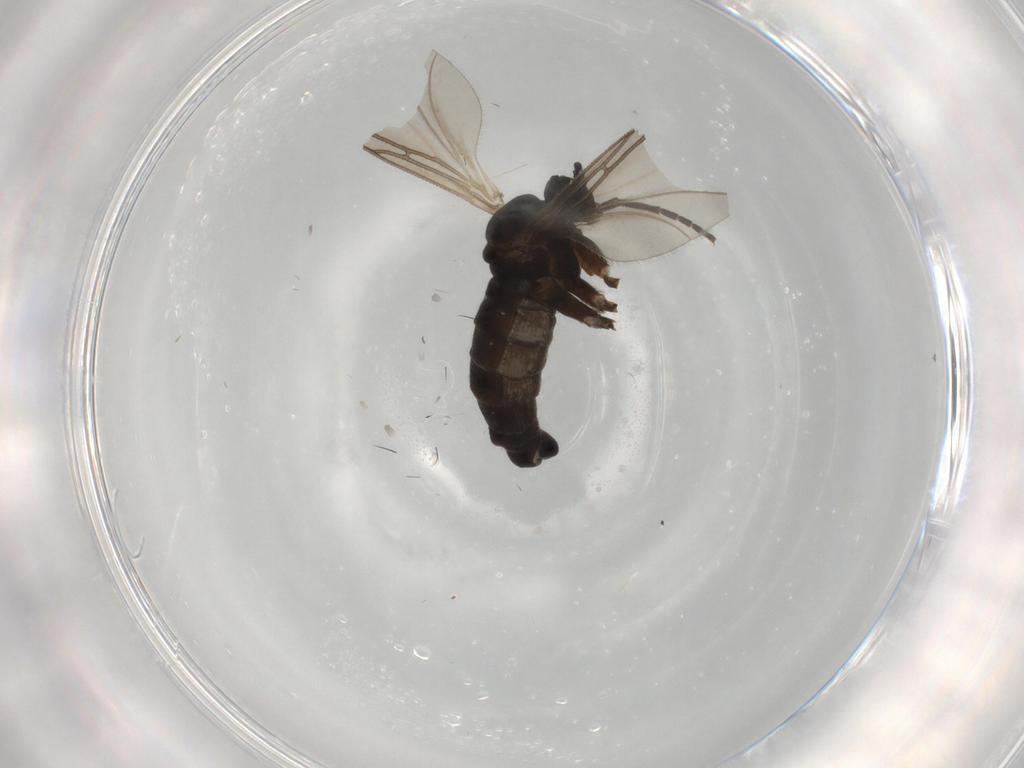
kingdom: Animalia
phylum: Arthropoda
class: Insecta
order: Diptera
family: Sciaridae
